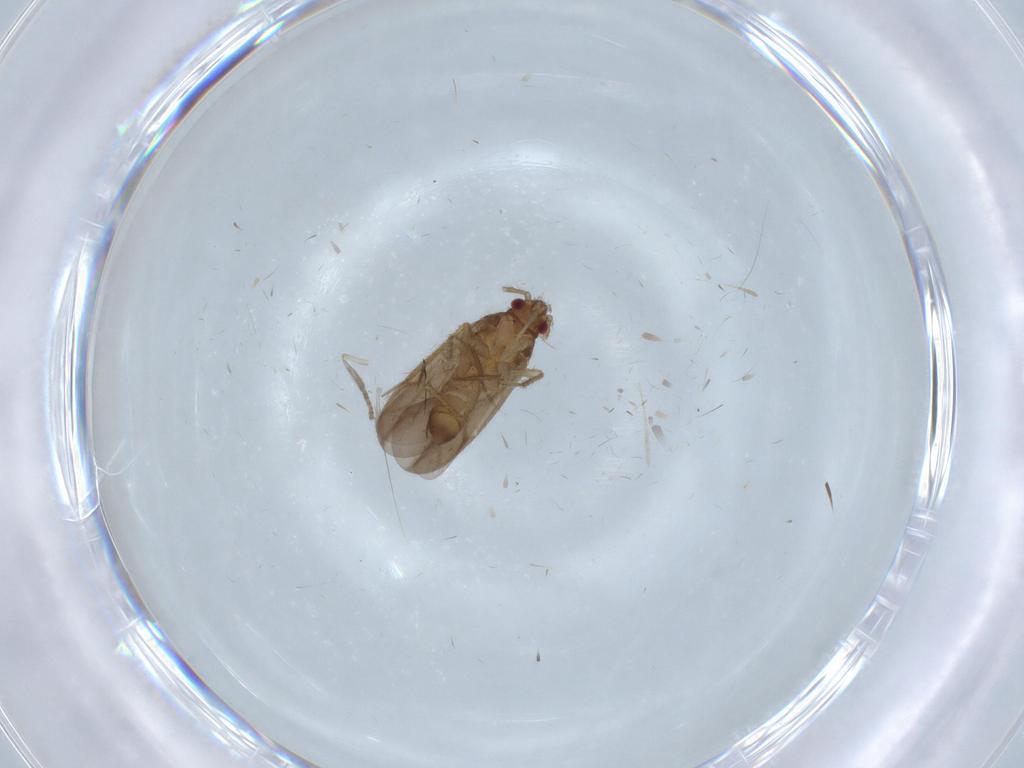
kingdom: Animalia
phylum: Arthropoda
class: Insecta
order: Hemiptera
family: Ceratocombidae
